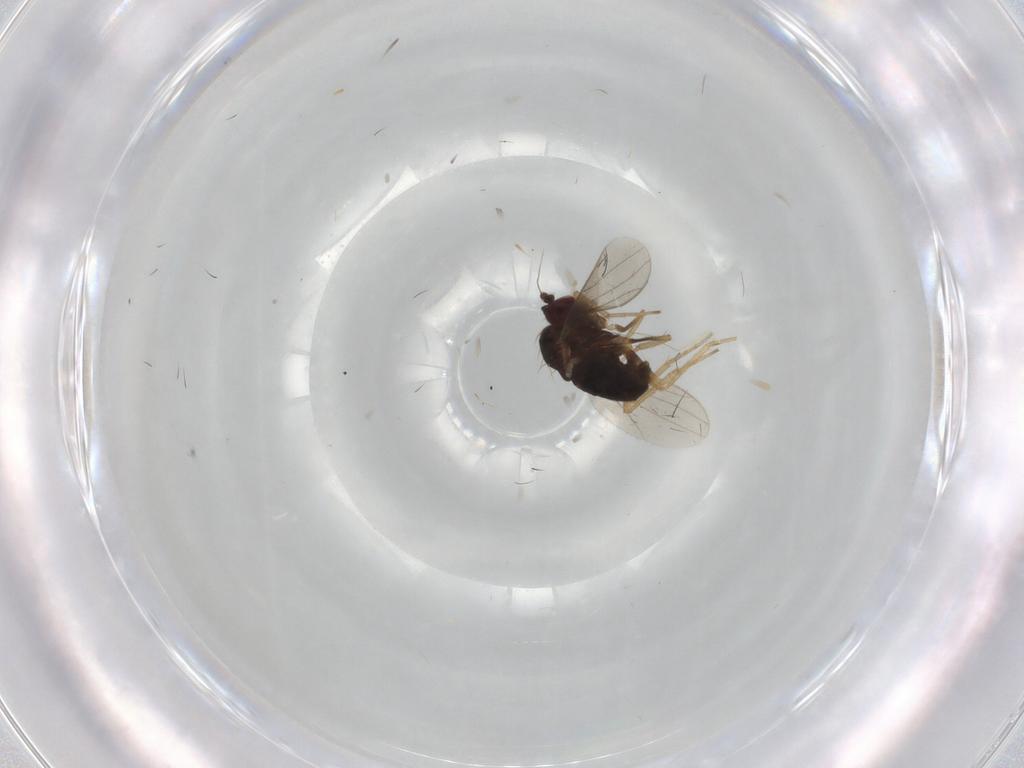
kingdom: Animalia
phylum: Arthropoda
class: Insecta
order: Diptera
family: Dolichopodidae
